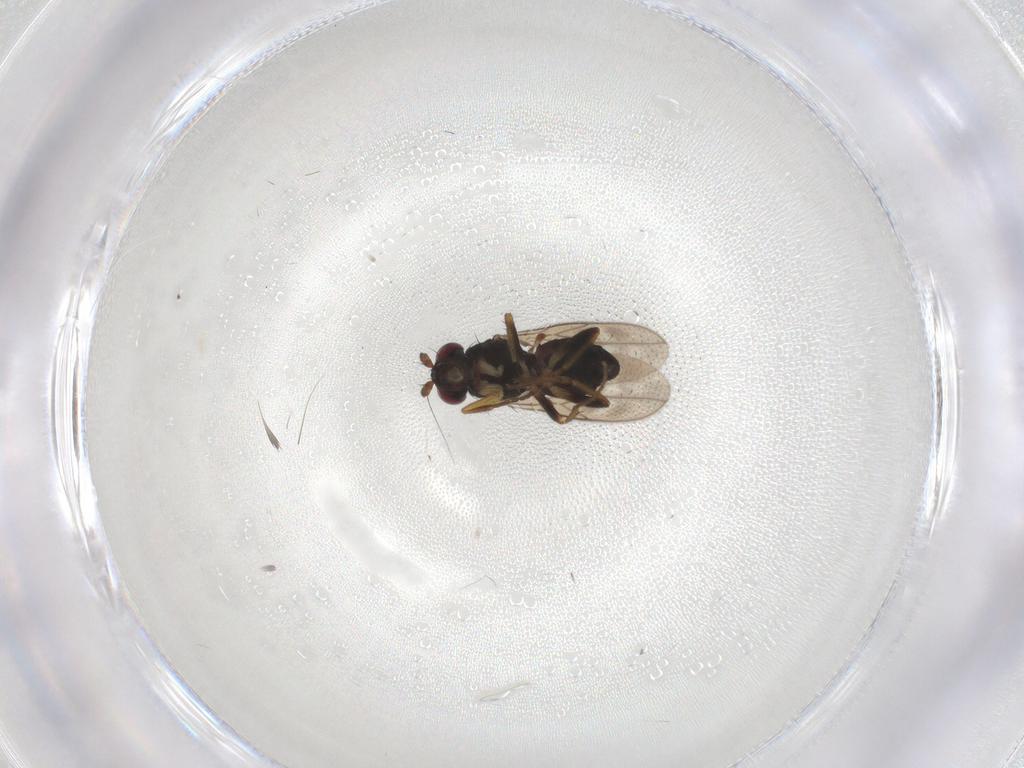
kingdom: Animalia
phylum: Arthropoda
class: Insecta
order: Diptera
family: Sphaeroceridae
